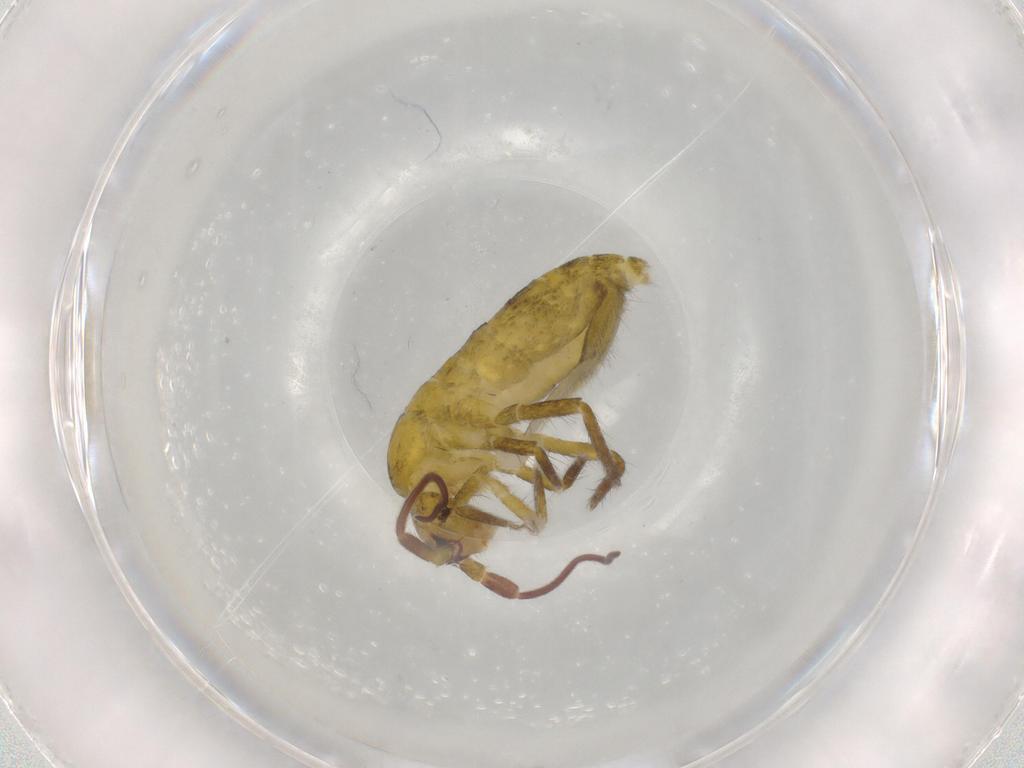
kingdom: Animalia
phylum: Arthropoda
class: Collembola
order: Entomobryomorpha
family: Tomoceridae
